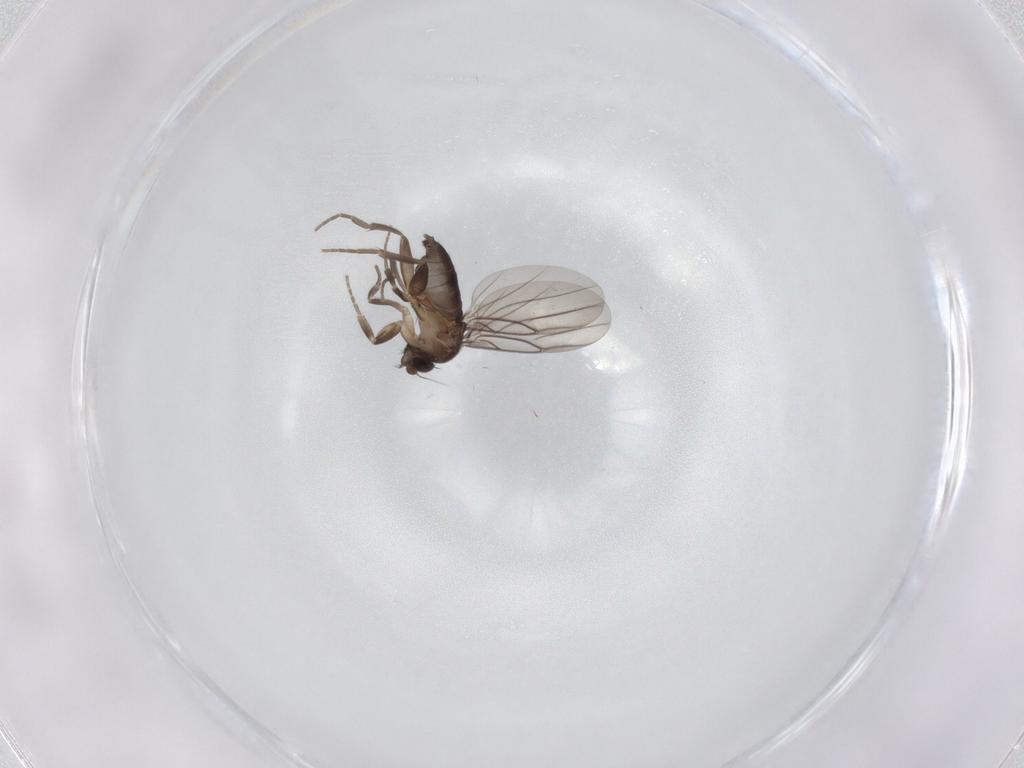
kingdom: Animalia
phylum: Arthropoda
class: Insecta
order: Diptera
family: Phoridae
